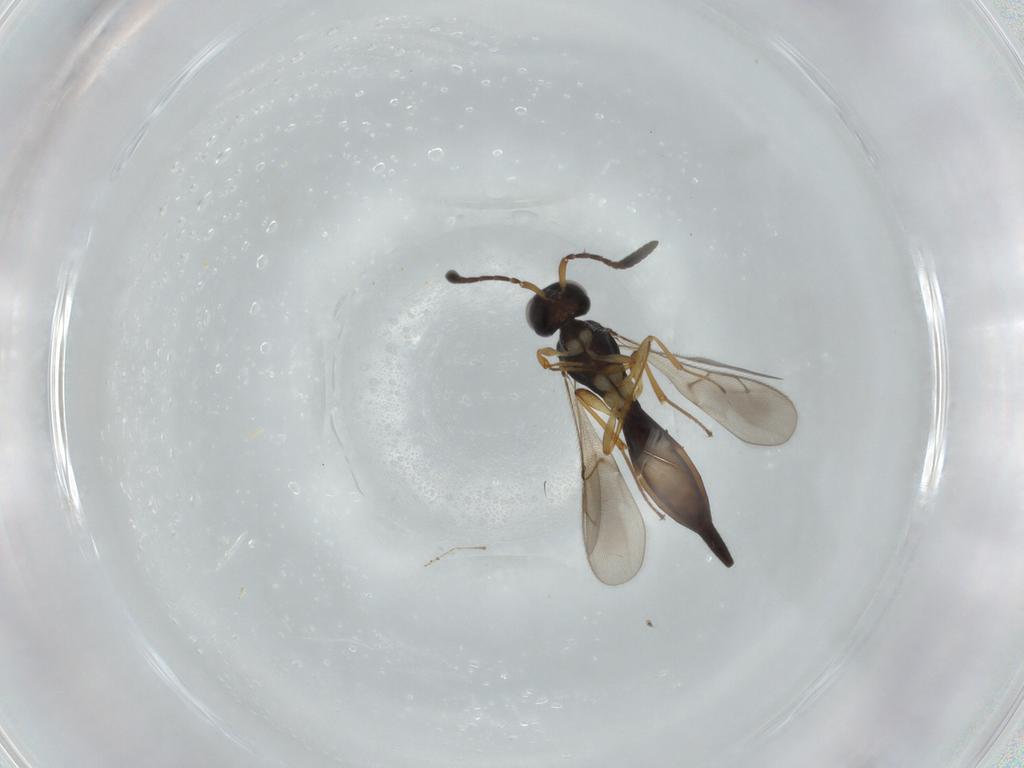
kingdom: Animalia
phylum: Arthropoda
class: Insecta
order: Hymenoptera
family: Scelionidae
